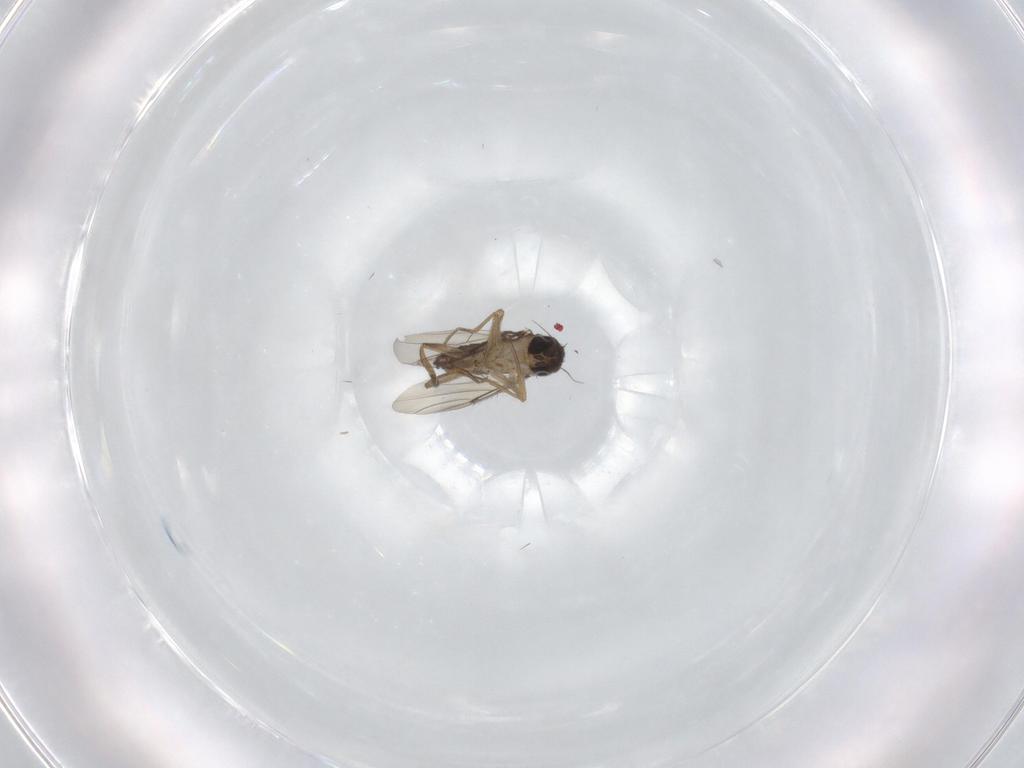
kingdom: Animalia
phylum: Arthropoda
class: Insecta
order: Diptera
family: Phoridae
